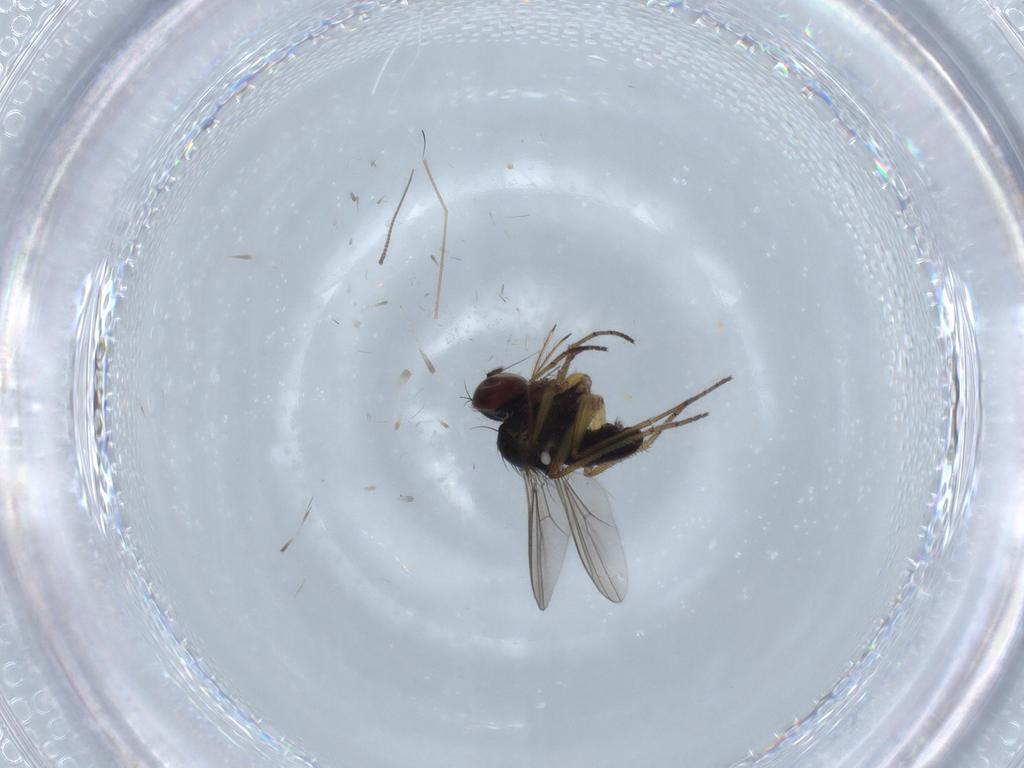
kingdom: Animalia
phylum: Arthropoda
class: Insecta
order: Diptera
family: Dolichopodidae
